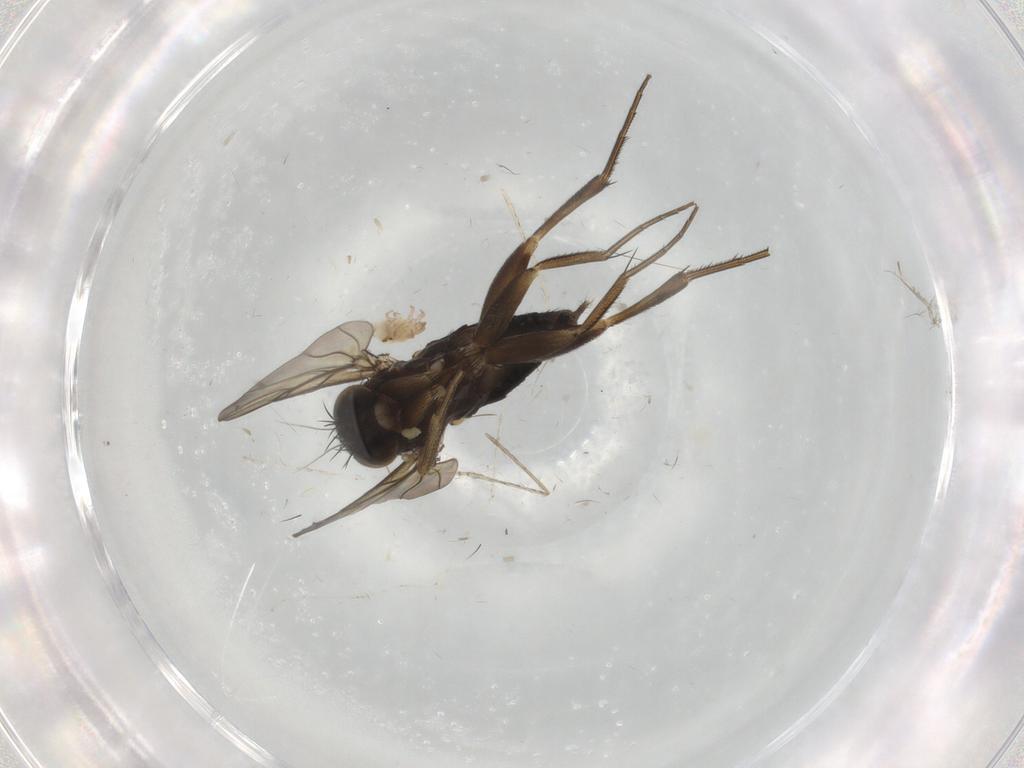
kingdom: Animalia
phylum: Arthropoda
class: Insecta
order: Diptera
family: Phoridae
